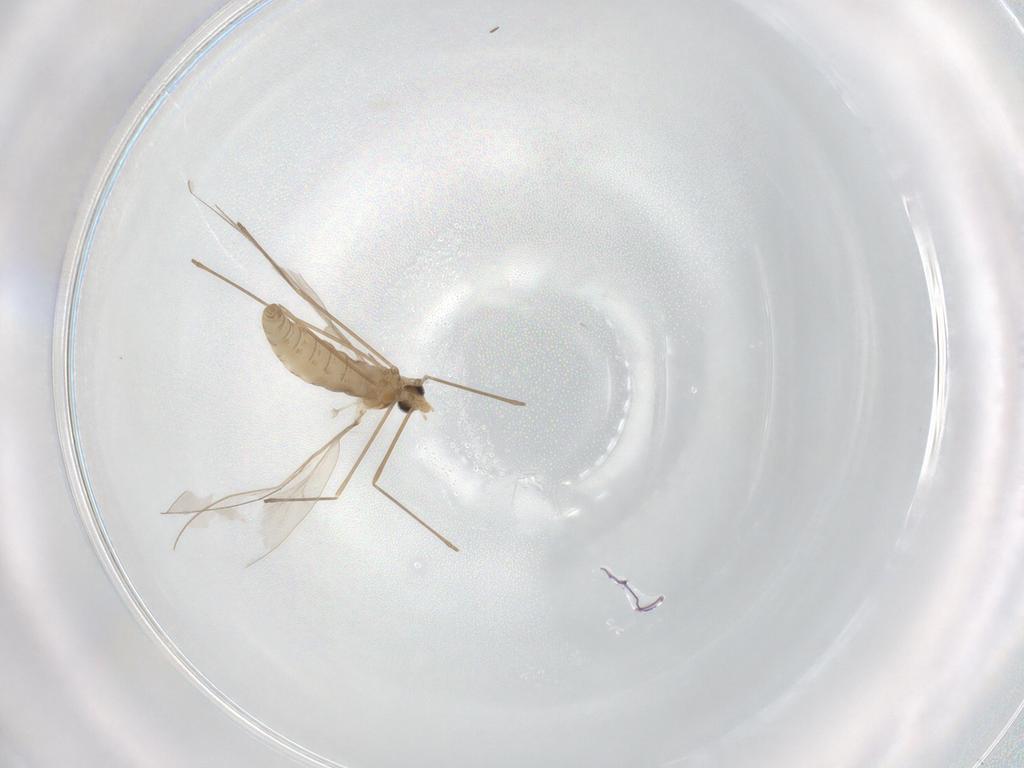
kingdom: Animalia
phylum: Arthropoda
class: Insecta
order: Diptera
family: Cecidomyiidae
